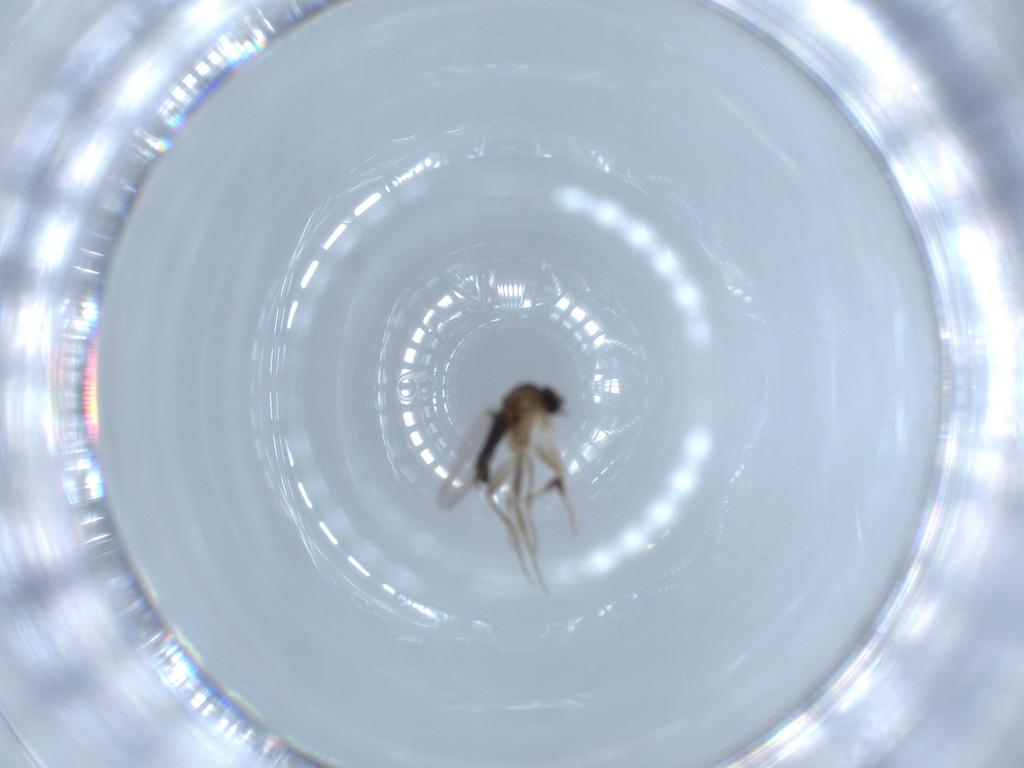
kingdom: Animalia
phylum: Arthropoda
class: Insecta
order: Diptera
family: Phoridae
